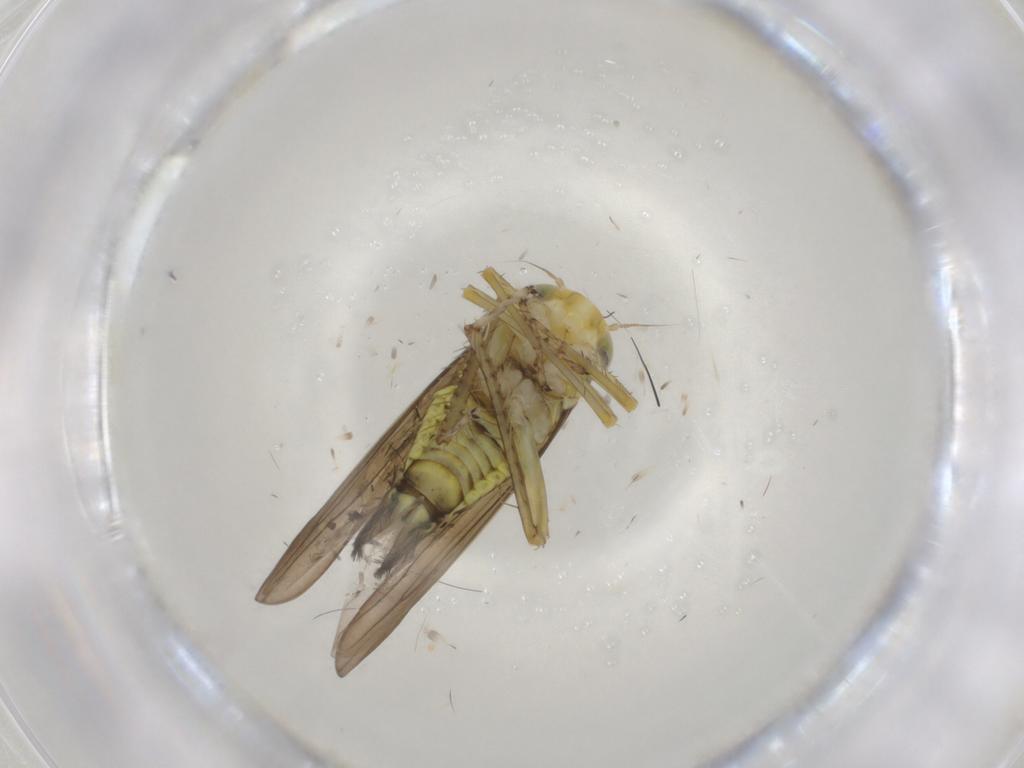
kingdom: Animalia
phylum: Arthropoda
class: Insecta
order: Hemiptera
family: Cicadellidae
